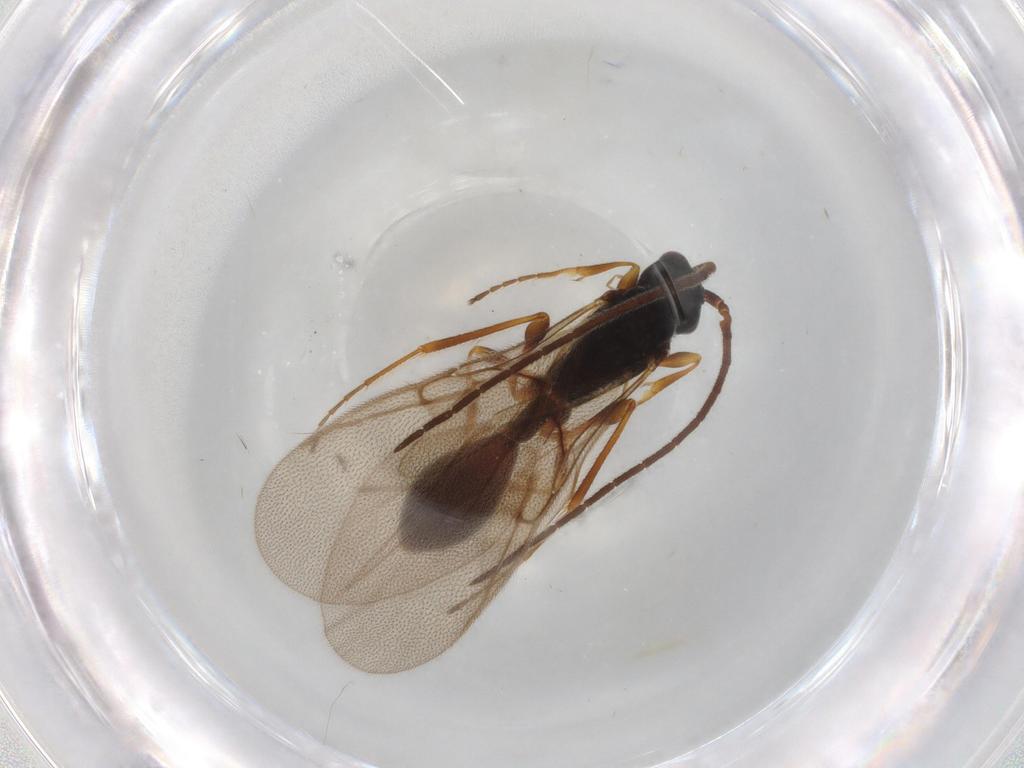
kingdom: Animalia
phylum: Arthropoda
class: Insecta
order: Hymenoptera
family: Diapriidae
